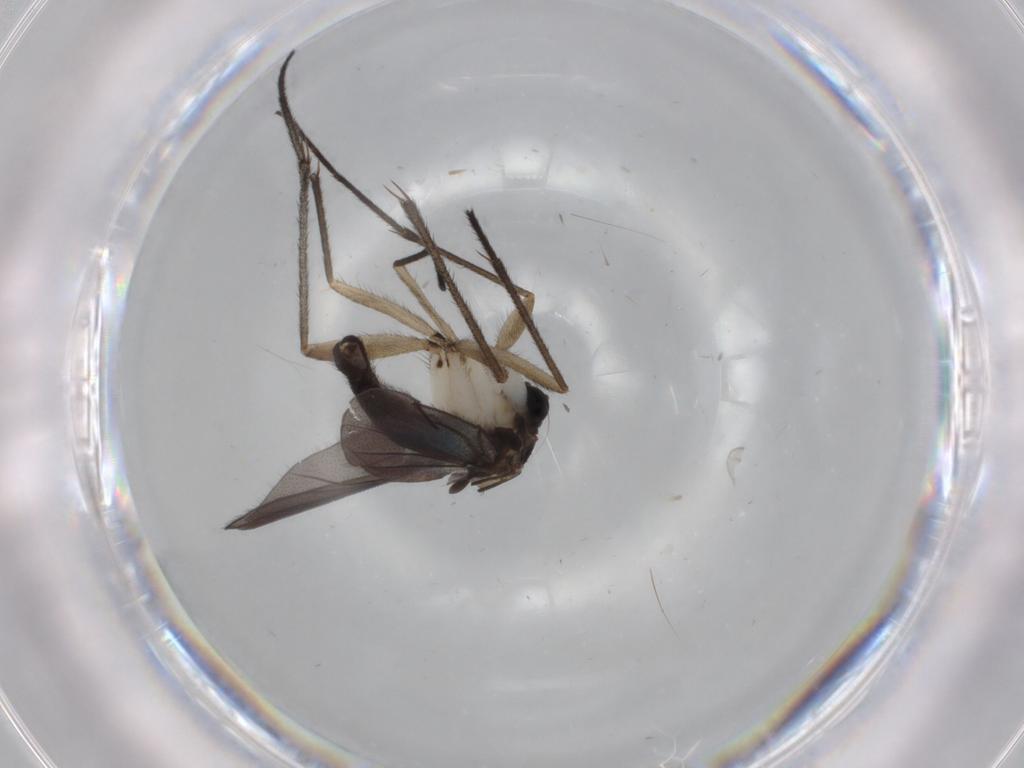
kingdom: Animalia
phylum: Arthropoda
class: Insecta
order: Diptera
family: Sciaridae
